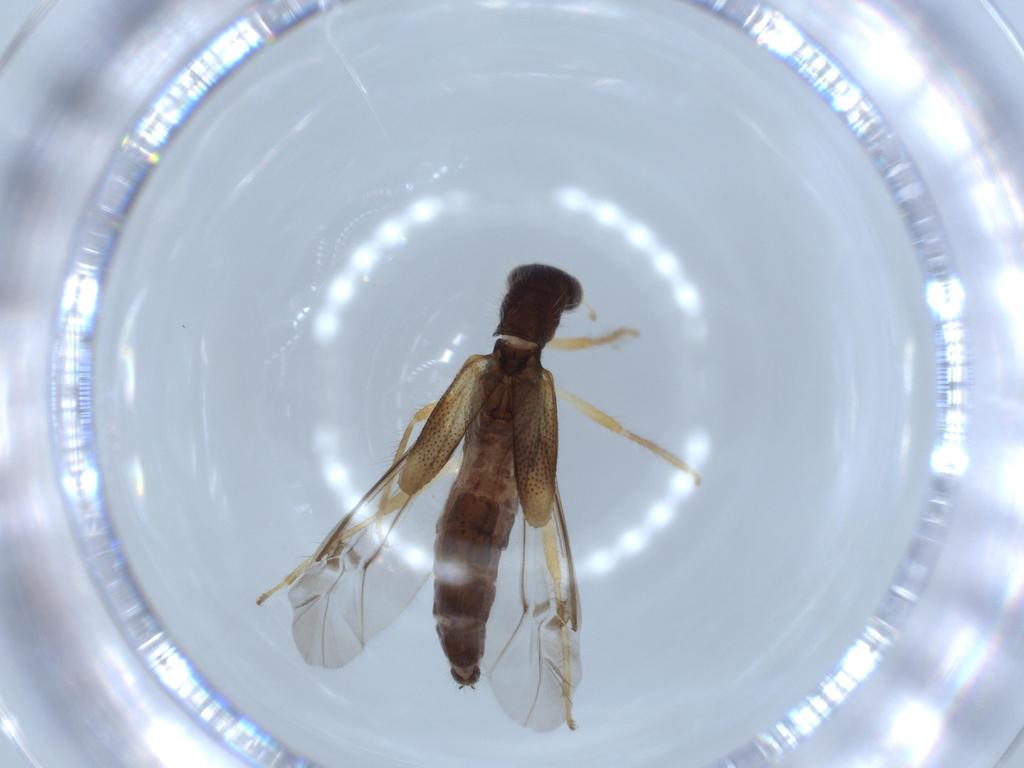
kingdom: Animalia
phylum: Arthropoda
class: Insecta
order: Coleoptera
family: Cleridae
